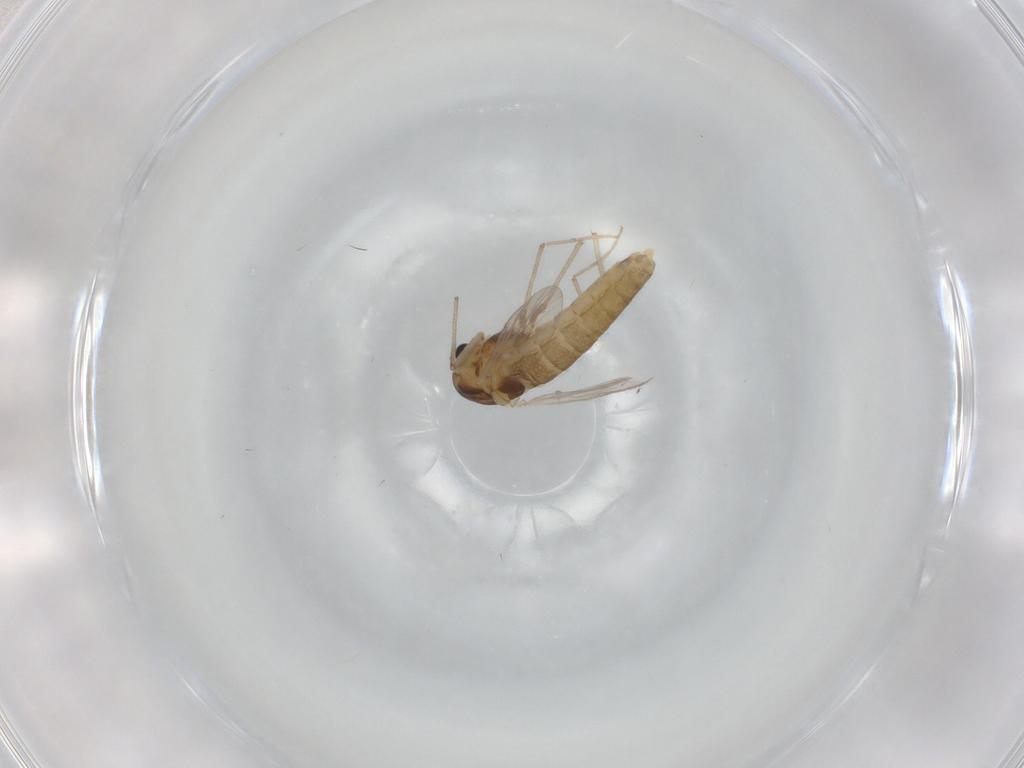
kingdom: Animalia
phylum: Arthropoda
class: Insecta
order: Diptera
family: Chironomidae
